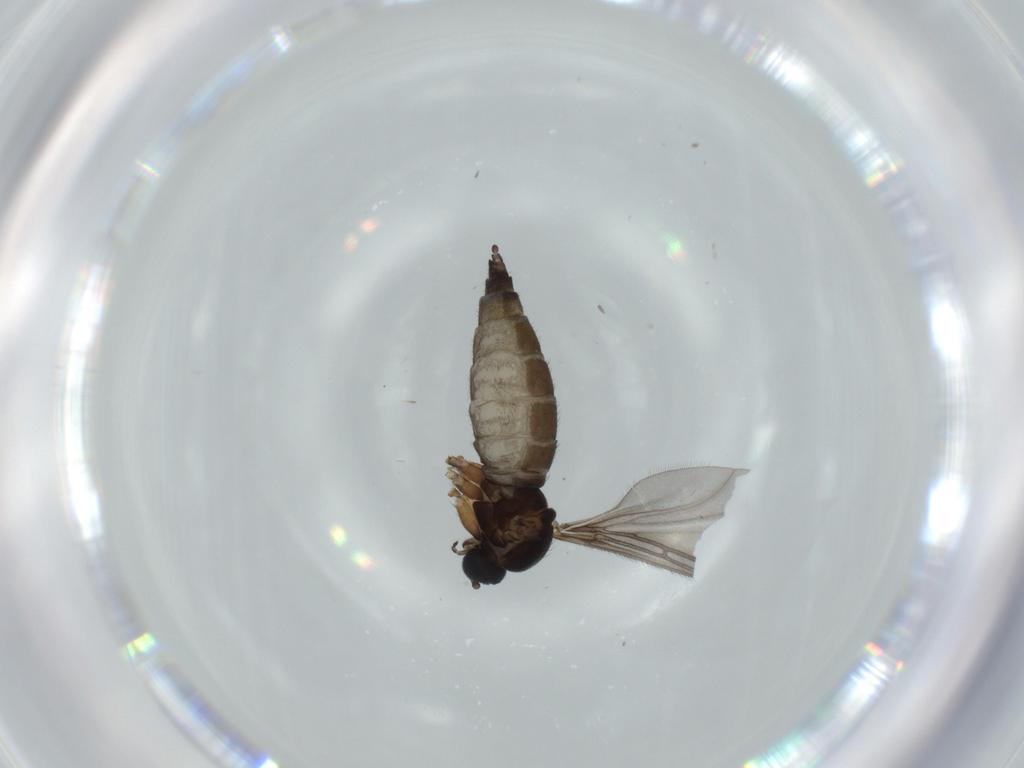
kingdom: Animalia
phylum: Arthropoda
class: Insecta
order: Diptera
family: Sciaridae
